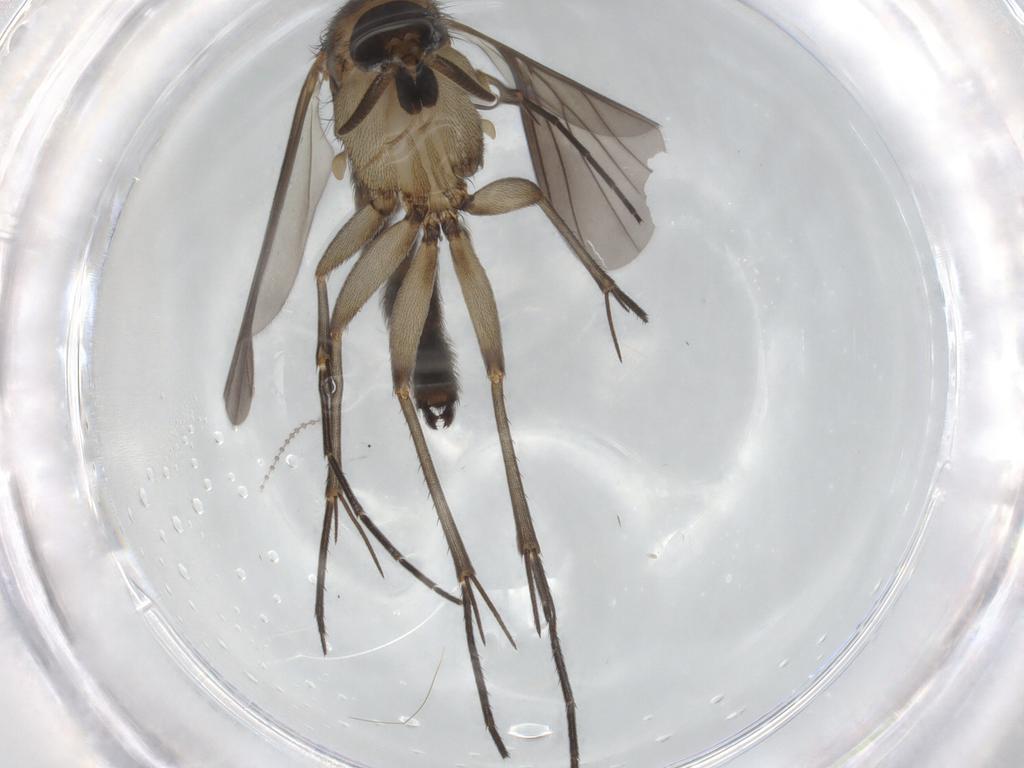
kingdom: Animalia
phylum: Arthropoda
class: Insecta
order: Diptera
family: Mycetophilidae
